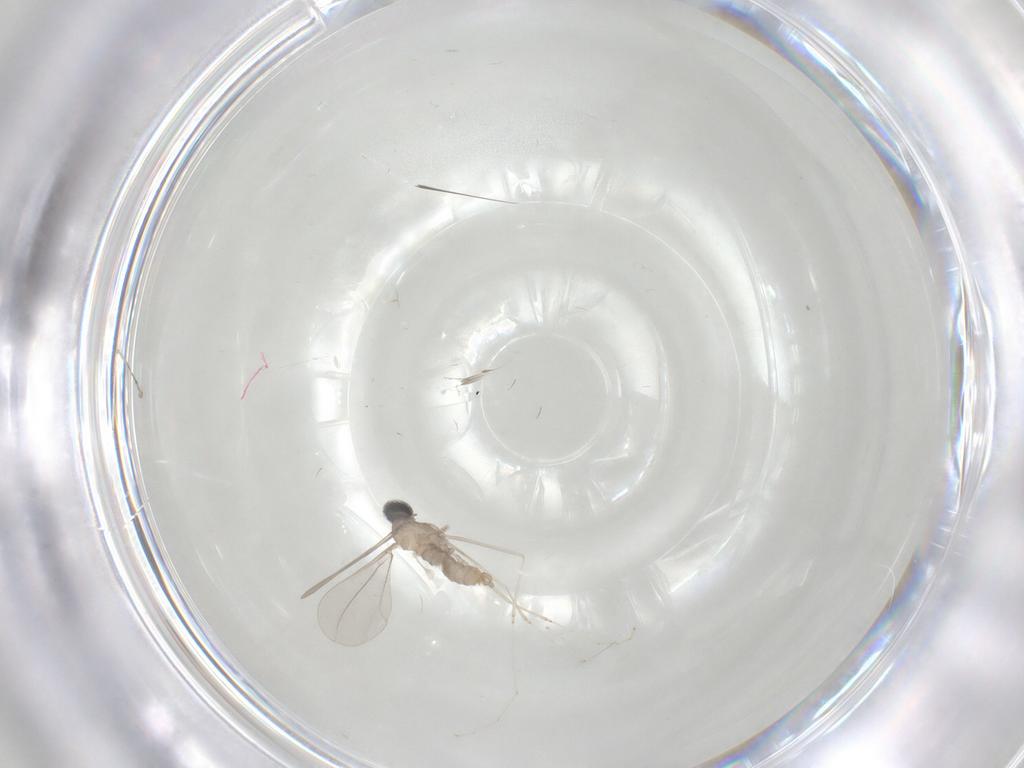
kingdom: Animalia
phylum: Arthropoda
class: Insecta
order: Diptera
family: Cecidomyiidae
